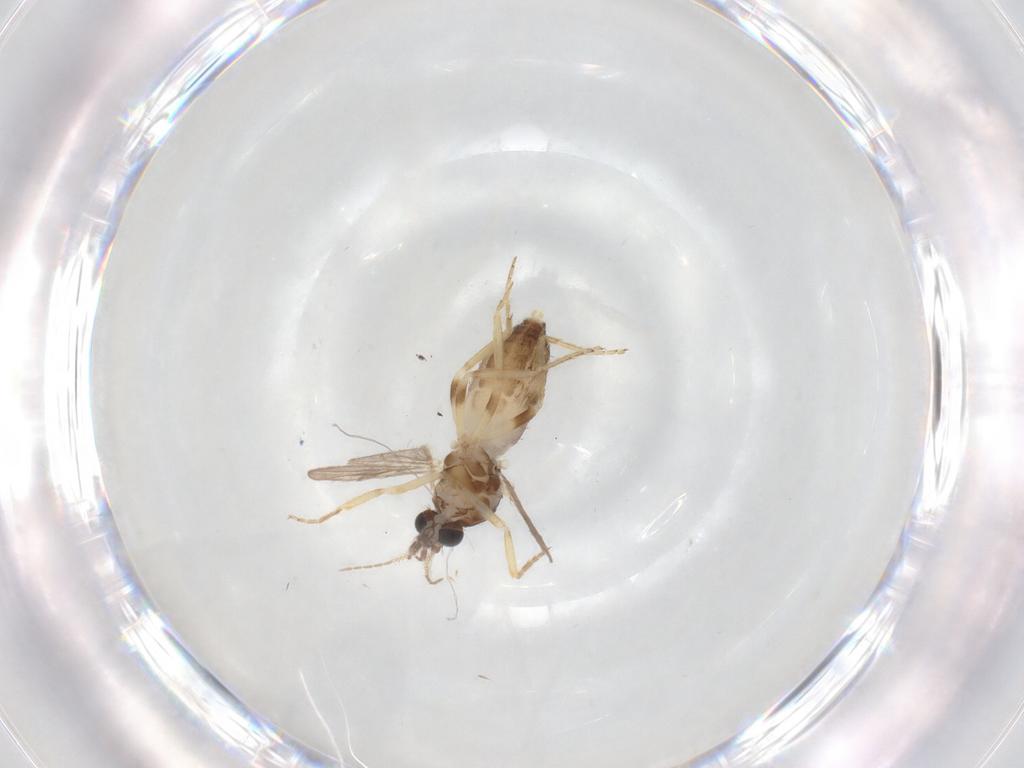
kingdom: Animalia
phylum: Arthropoda
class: Insecta
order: Diptera
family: Ceratopogonidae
